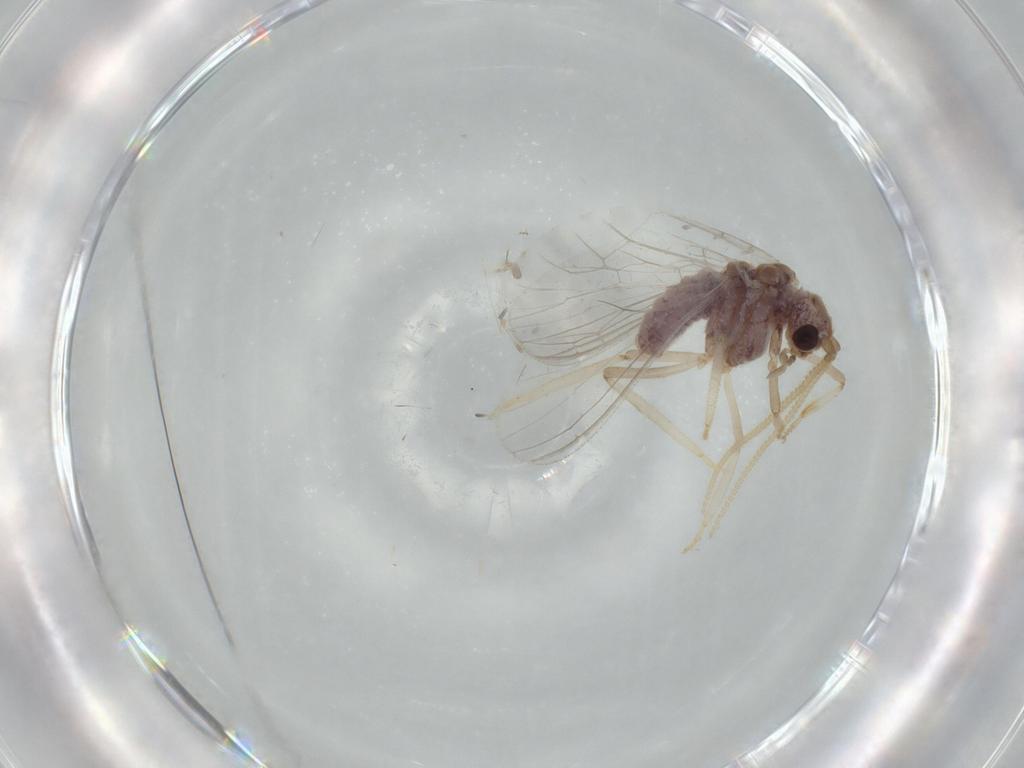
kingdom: Animalia
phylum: Arthropoda
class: Insecta
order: Neuroptera
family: Coniopterygidae
